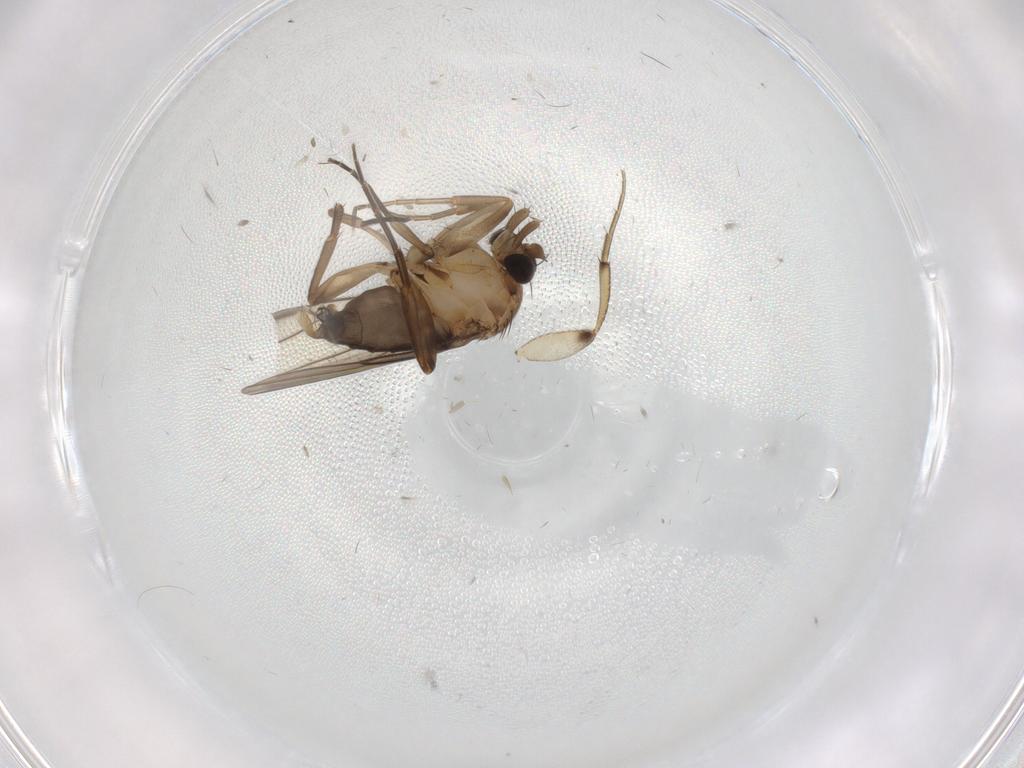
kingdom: Animalia
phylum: Arthropoda
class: Insecta
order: Diptera
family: Phoridae
